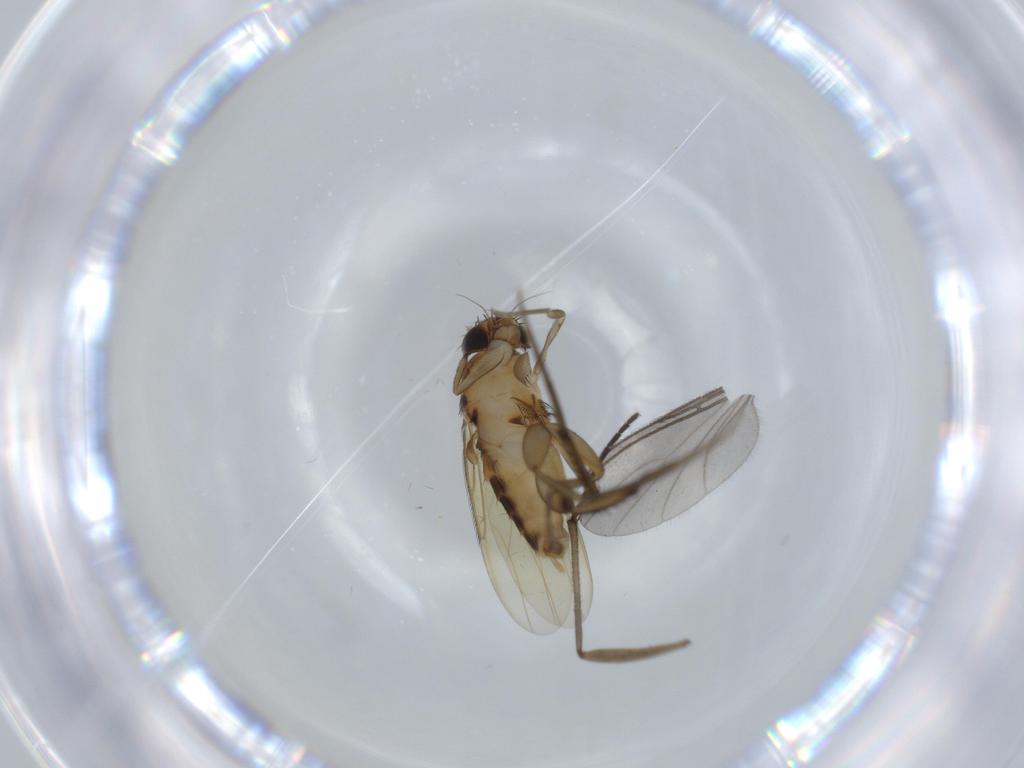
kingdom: Animalia
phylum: Arthropoda
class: Insecta
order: Diptera
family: Phoridae
